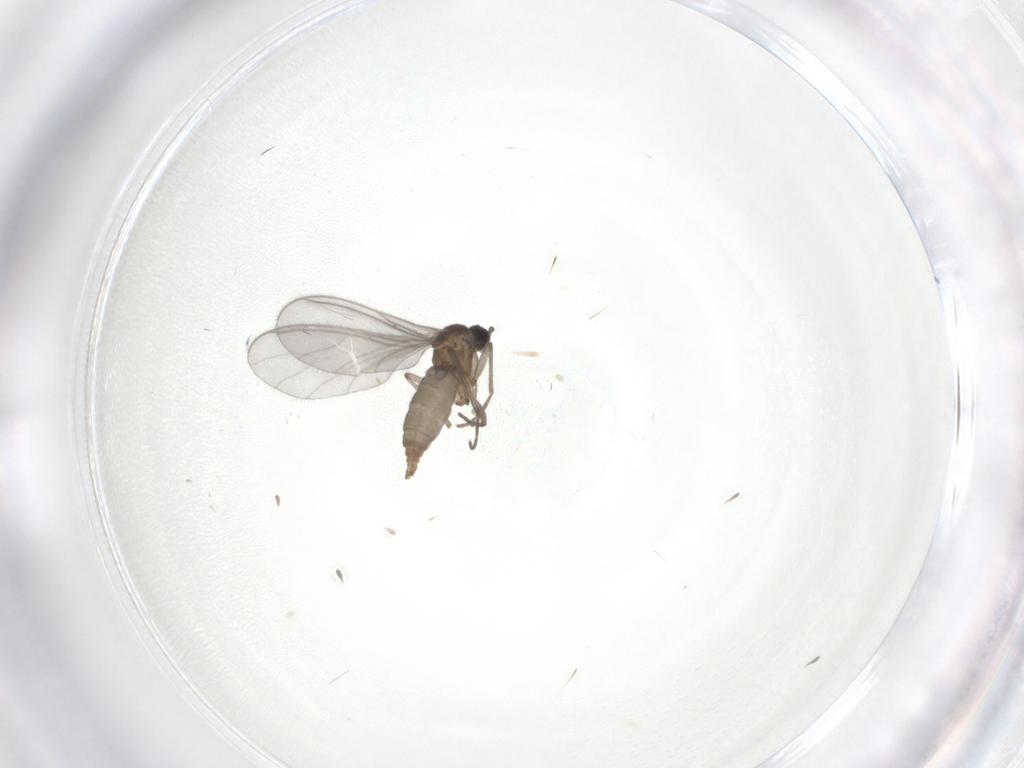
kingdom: Animalia
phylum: Arthropoda
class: Insecta
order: Diptera
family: Sciaridae
